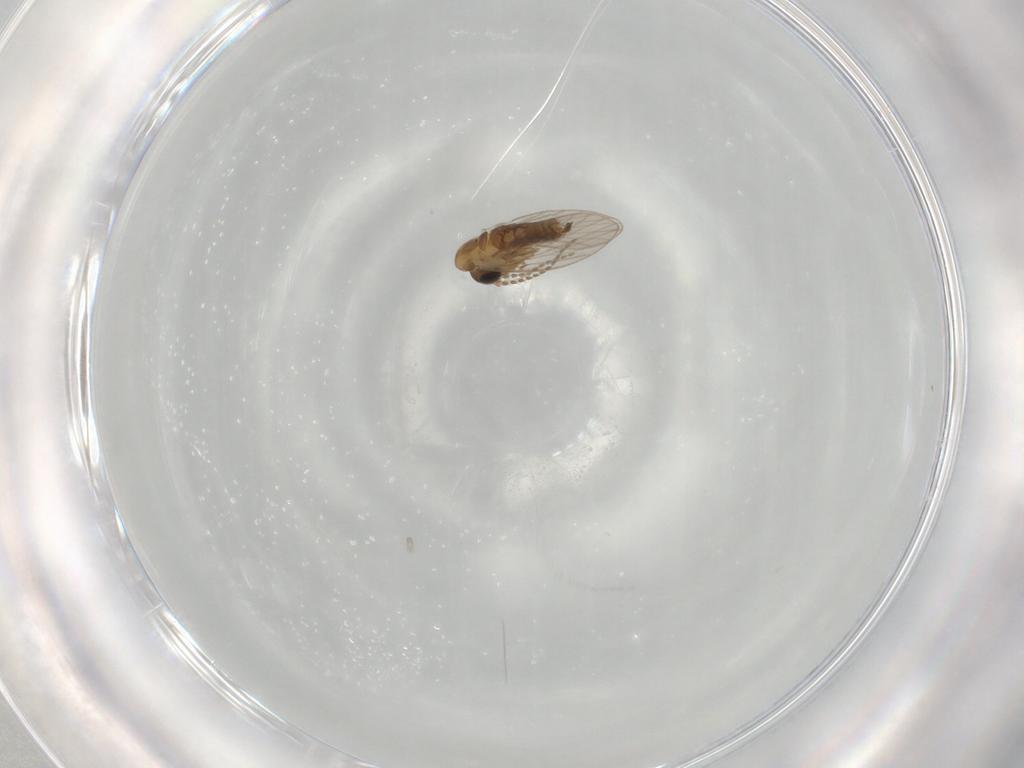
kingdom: Animalia
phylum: Arthropoda
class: Insecta
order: Diptera
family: Psychodidae
